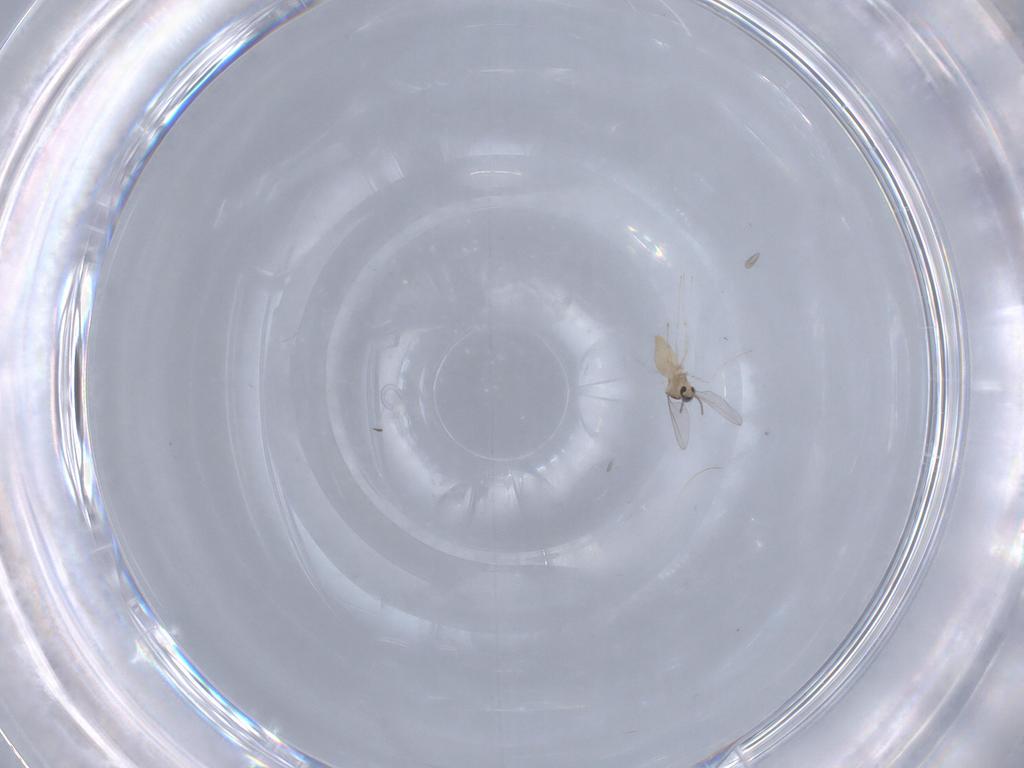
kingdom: Animalia
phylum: Arthropoda
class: Insecta
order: Diptera
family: Cecidomyiidae
